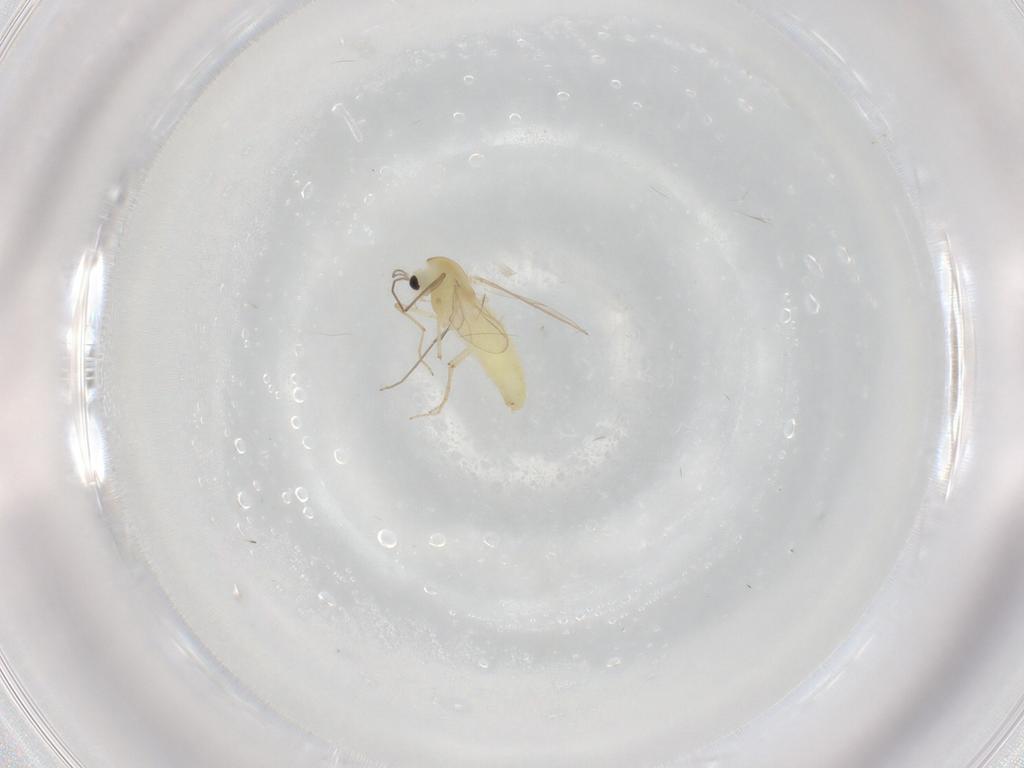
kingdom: Animalia
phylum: Arthropoda
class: Insecta
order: Diptera
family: Chironomidae
